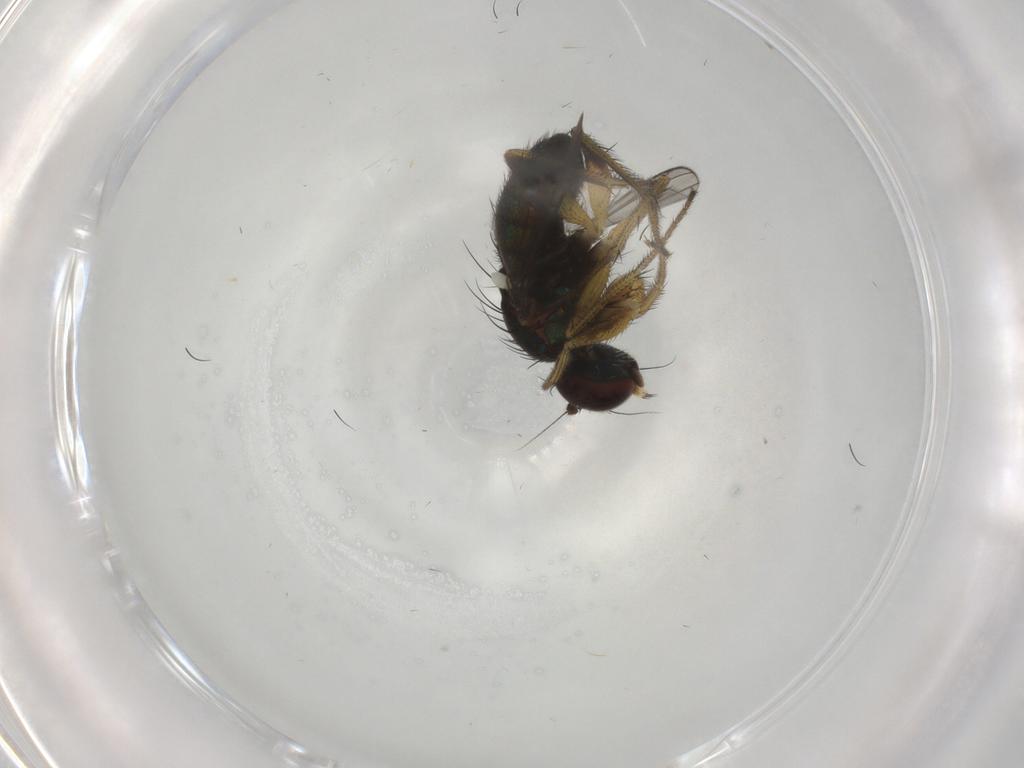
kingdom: Animalia
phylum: Arthropoda
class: Insecta
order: Diptera
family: Dolichopodidae
